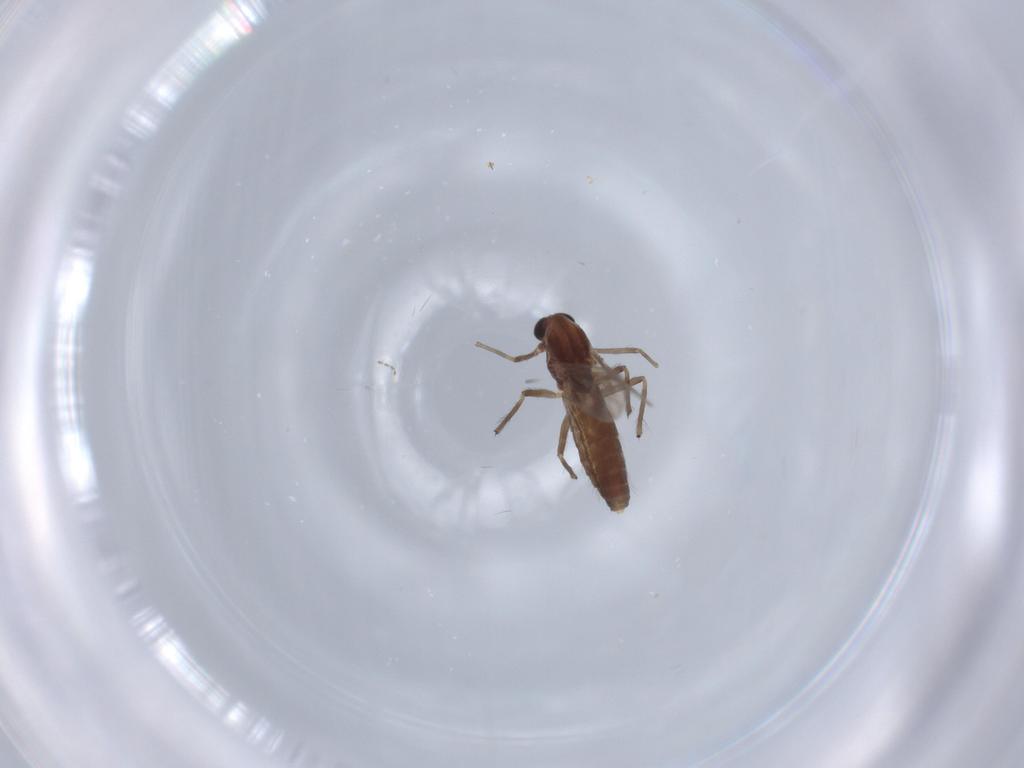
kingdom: Animalia
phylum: Arthropoda
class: Insecta
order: Diptera
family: Chironomidae
